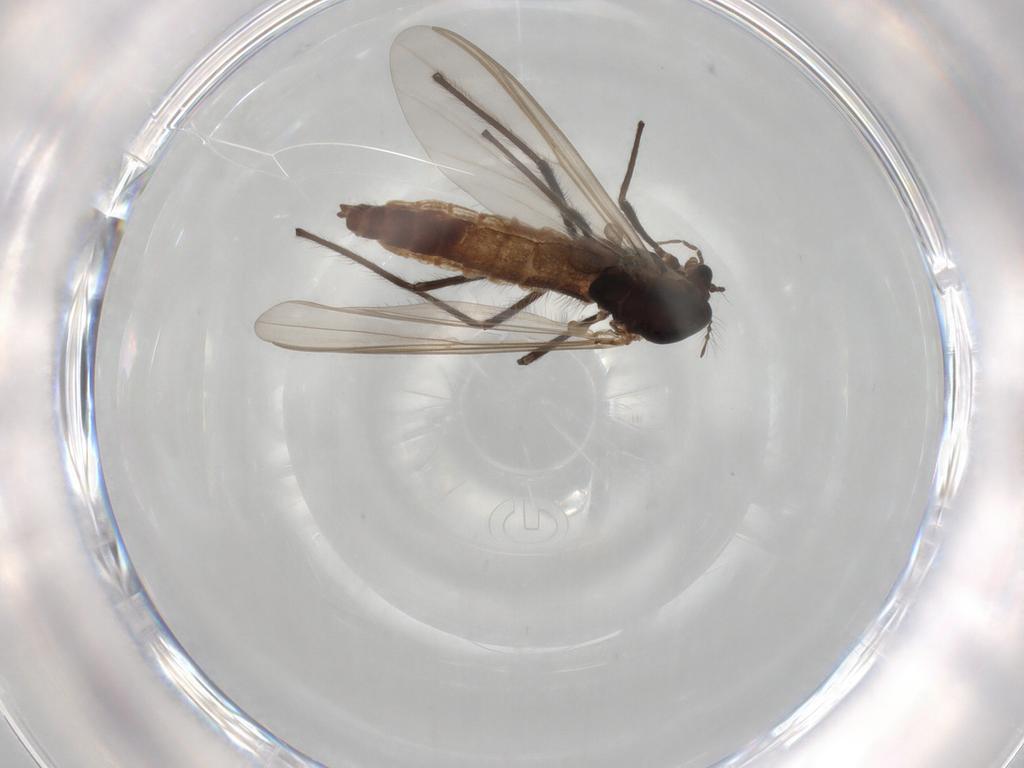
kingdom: Animalia
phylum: Arthropoda
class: Insecta
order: Diptera
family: Chironomidae
